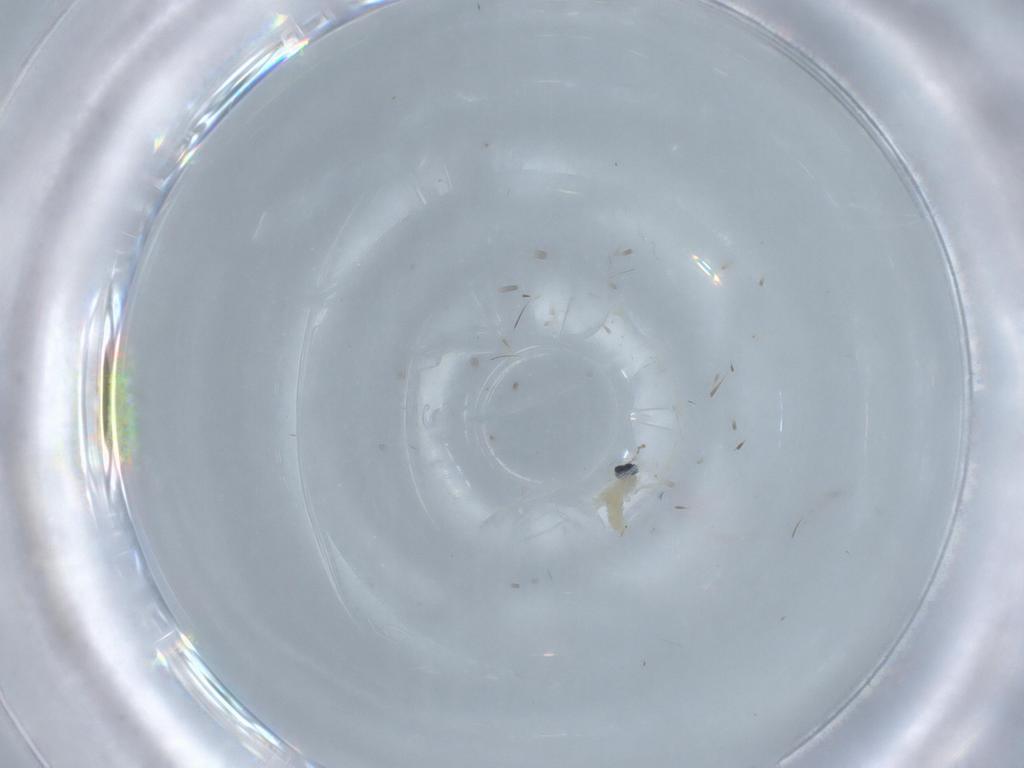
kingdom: Animalia
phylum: Arthropoda
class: Insecta
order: Diptera
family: Cecidomyiidae
